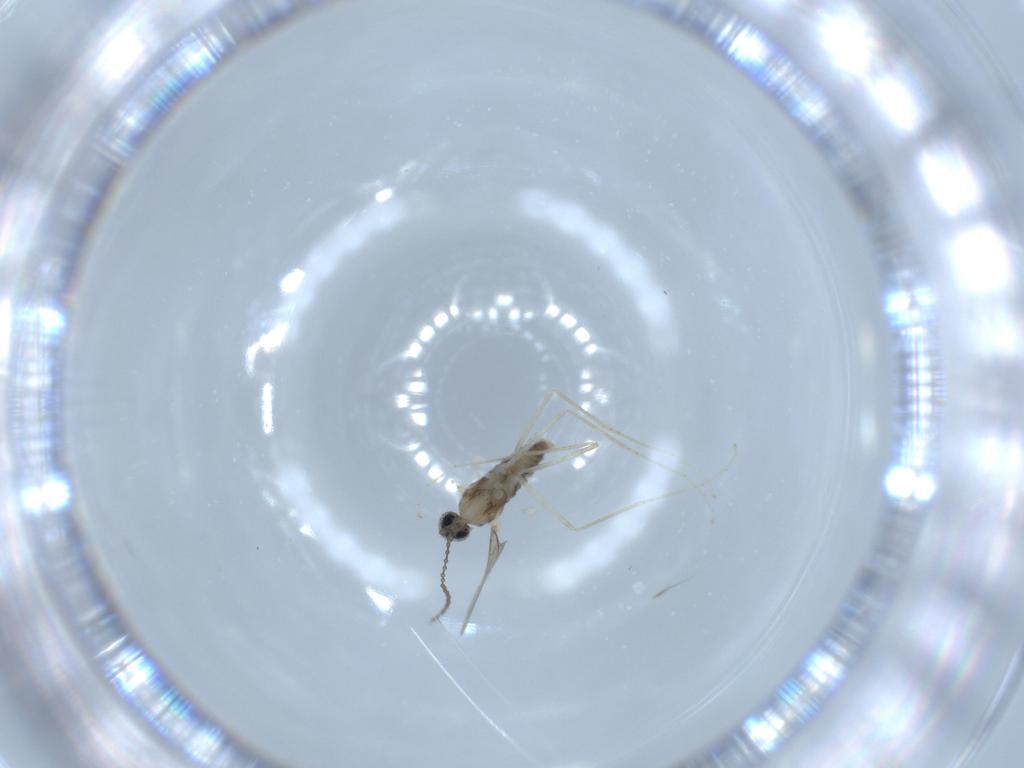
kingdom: Animalia
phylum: Arthropoda
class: Insecta
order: Diptera
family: Cecidomyiidae
